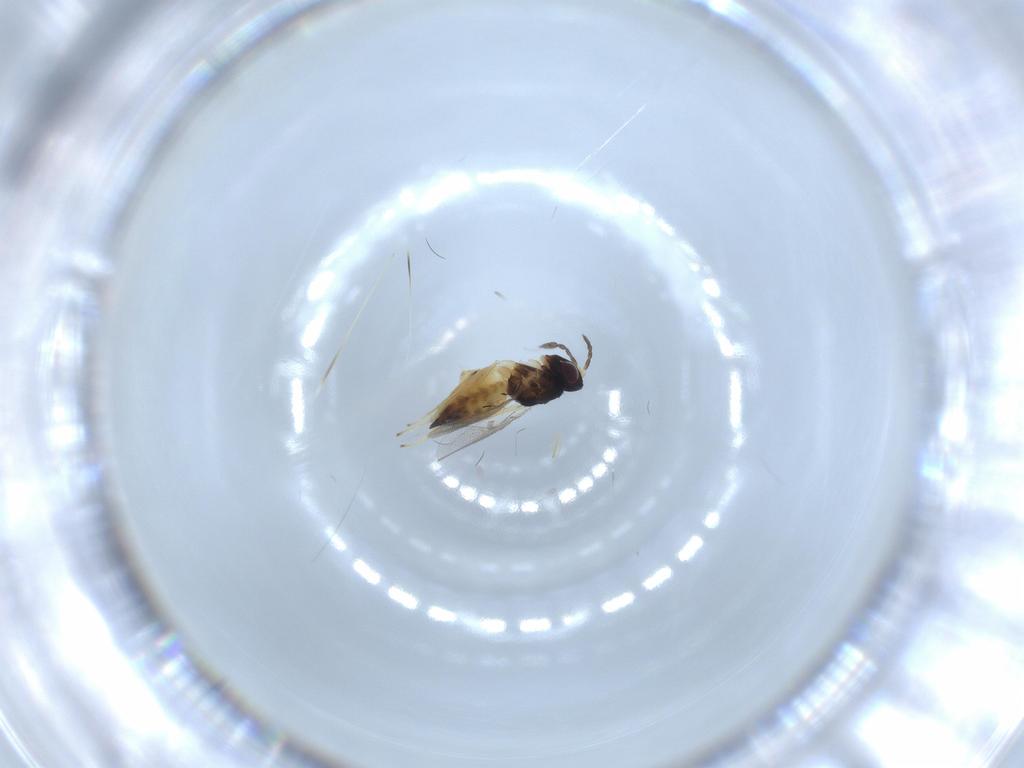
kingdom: Animalia
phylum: Arthropoda
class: Insecta
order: Hymenoptera
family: Eulophidae
